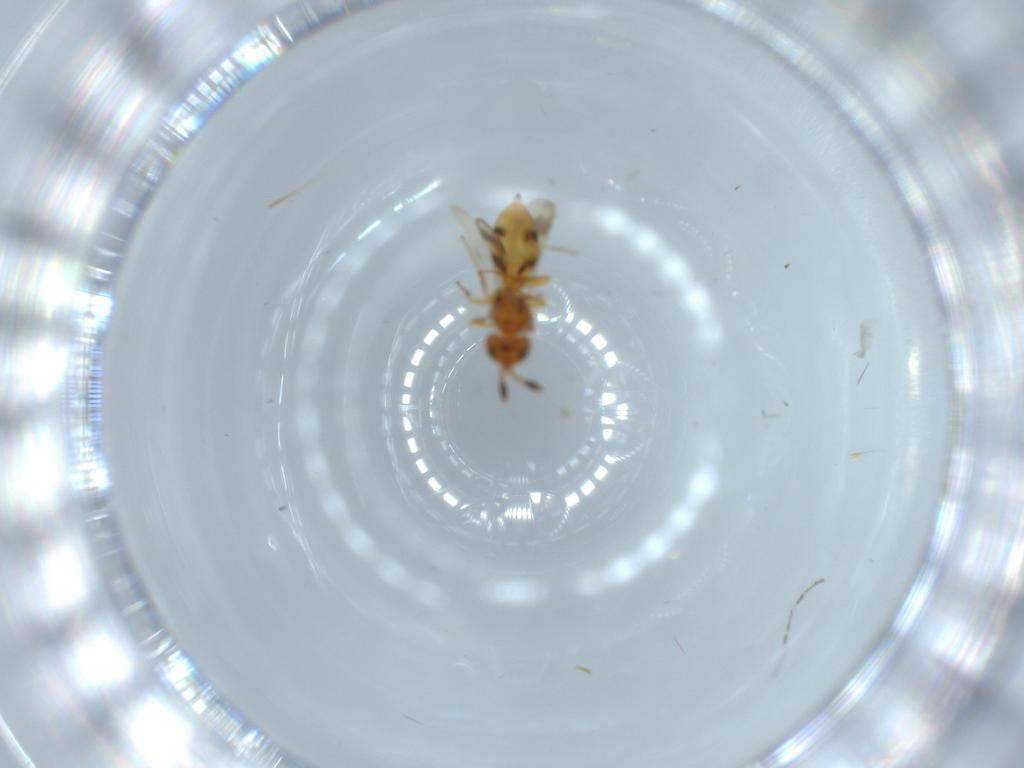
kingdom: Animalia
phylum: Arthropoda
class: Insecta
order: Hymenoptera
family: Scelionidae
